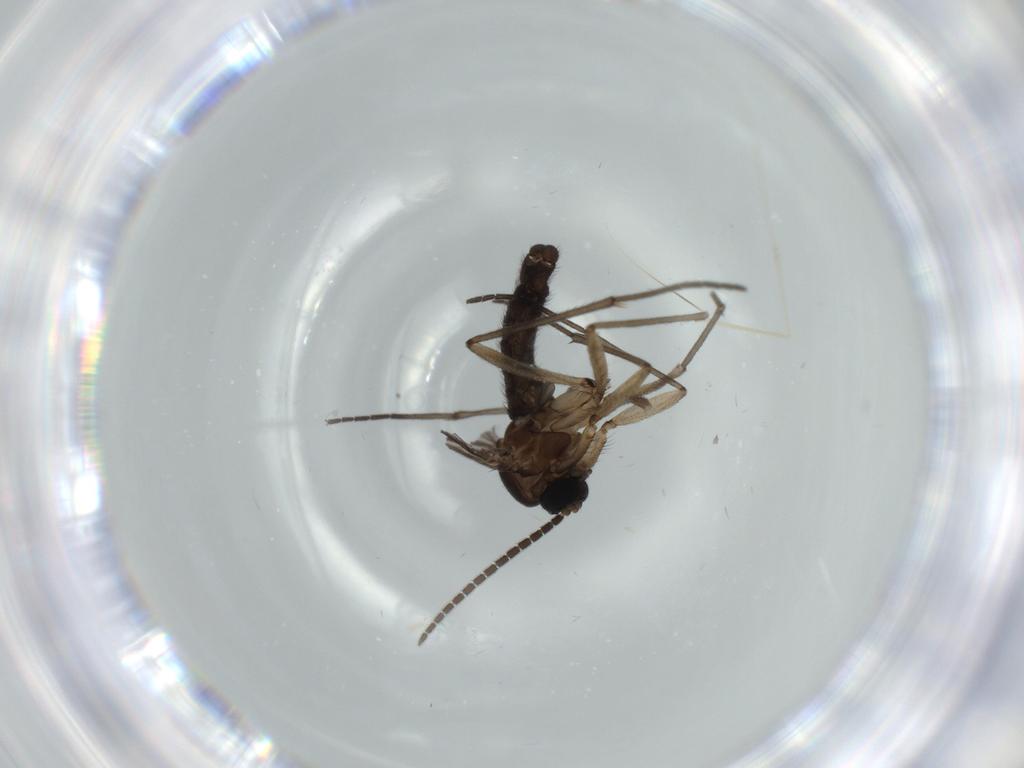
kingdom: Animalia
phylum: Arthropoda
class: Insecta
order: Diptera
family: Sciaridae
